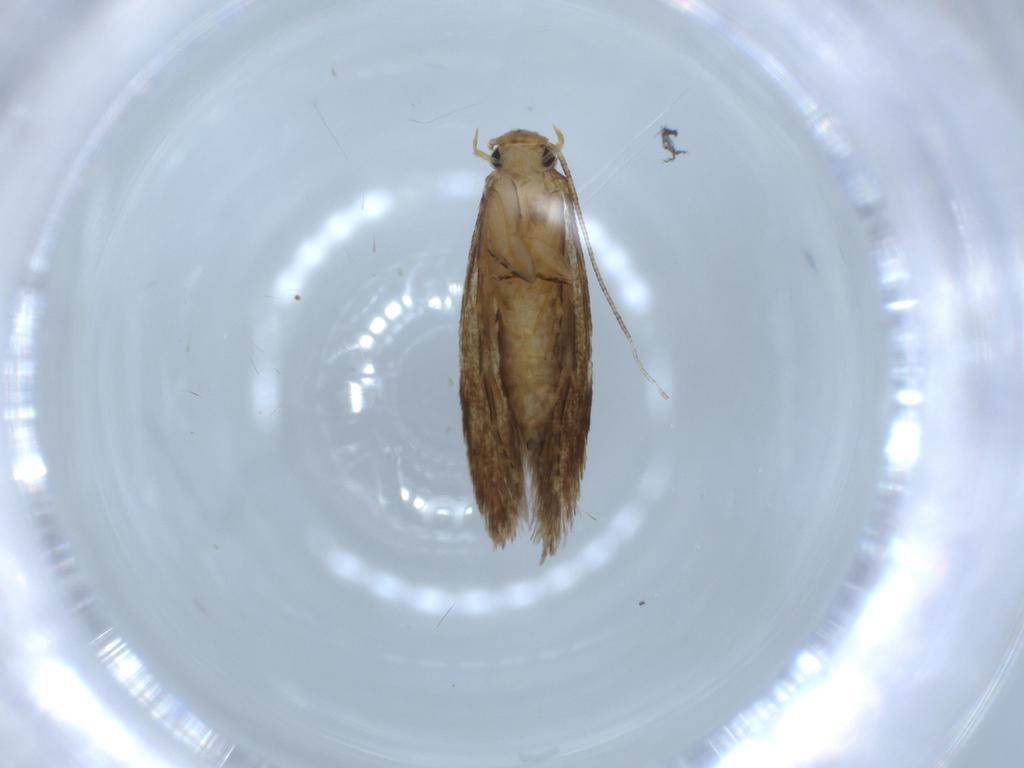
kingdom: Animalia
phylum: Arthropoda
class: Insecta
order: Lepidoptera
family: Tineidae
